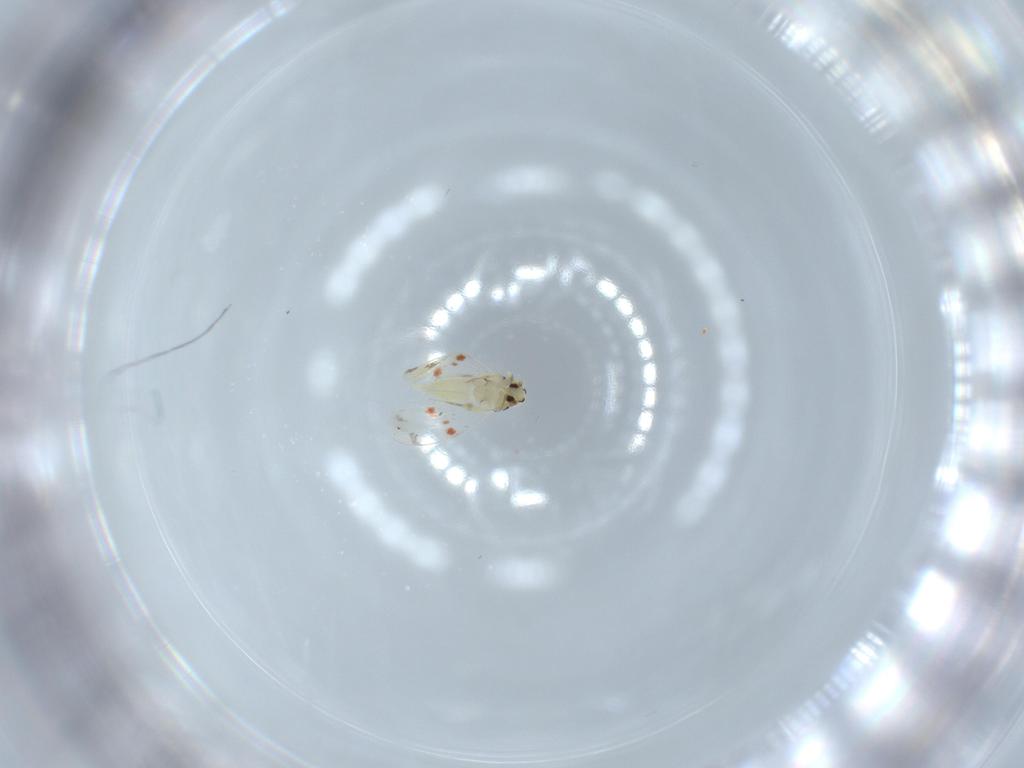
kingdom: Animalia
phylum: Arthropoda
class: Insecta
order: Hemiptera
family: Aleyrodidae
